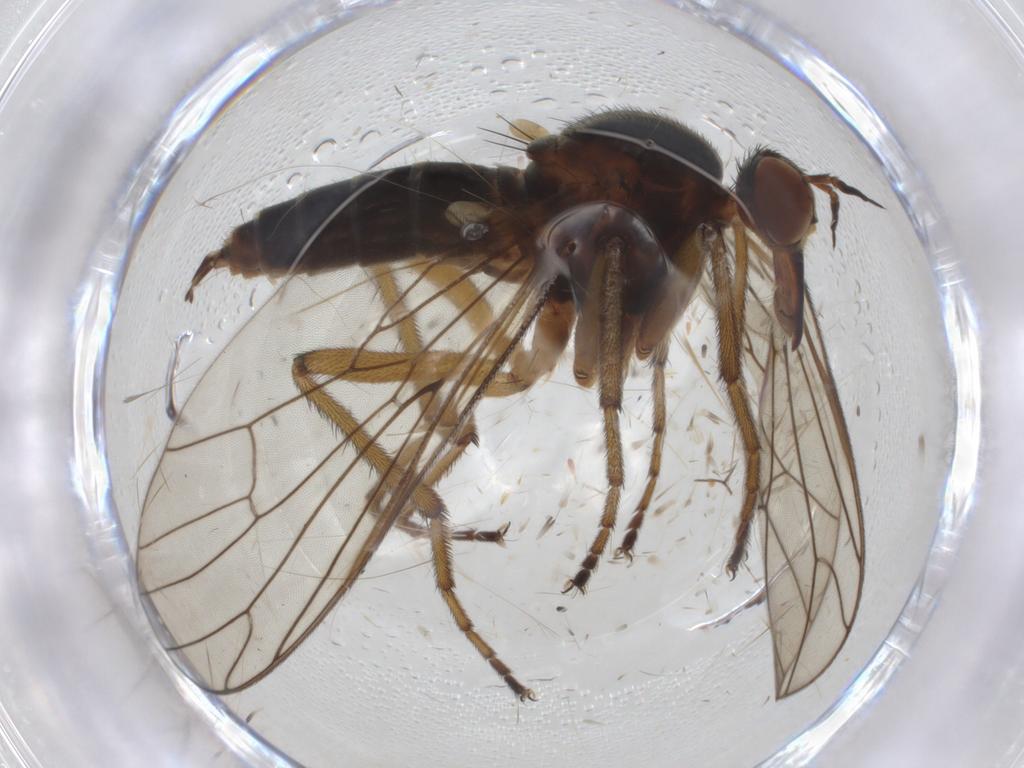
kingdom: Animalia
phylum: Arthropoda
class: Insecta
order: Diptera
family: Empididae
